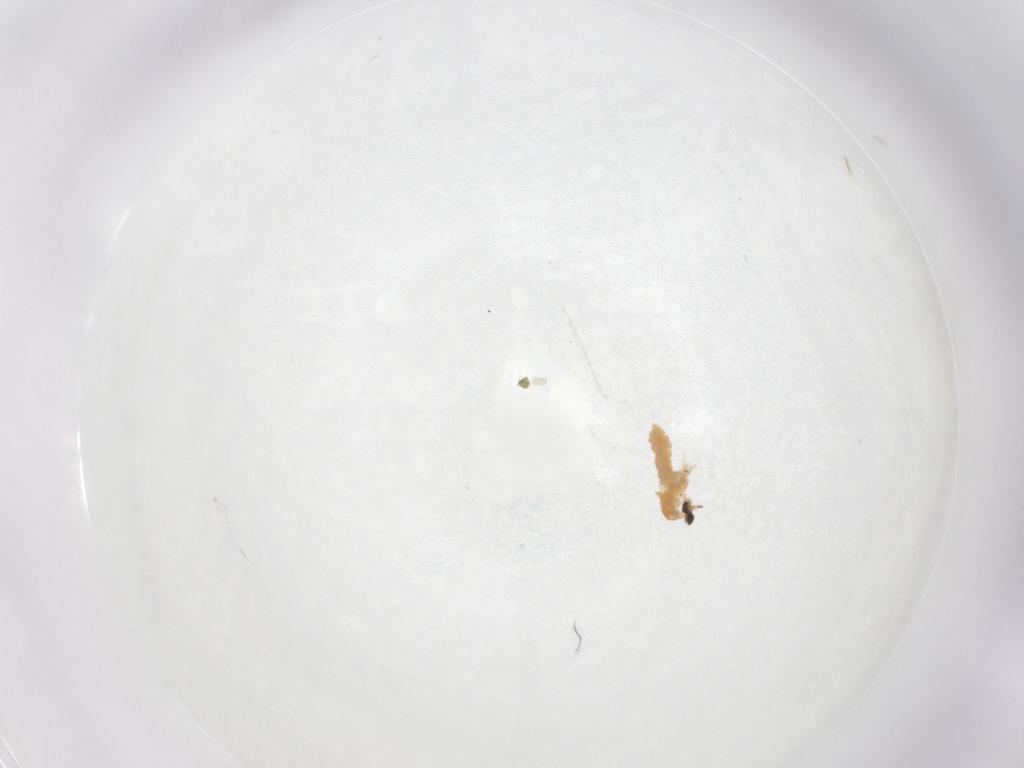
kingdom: Animalia
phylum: Arthropoda
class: Insecta
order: Diptera
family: Cecidomyiidae
